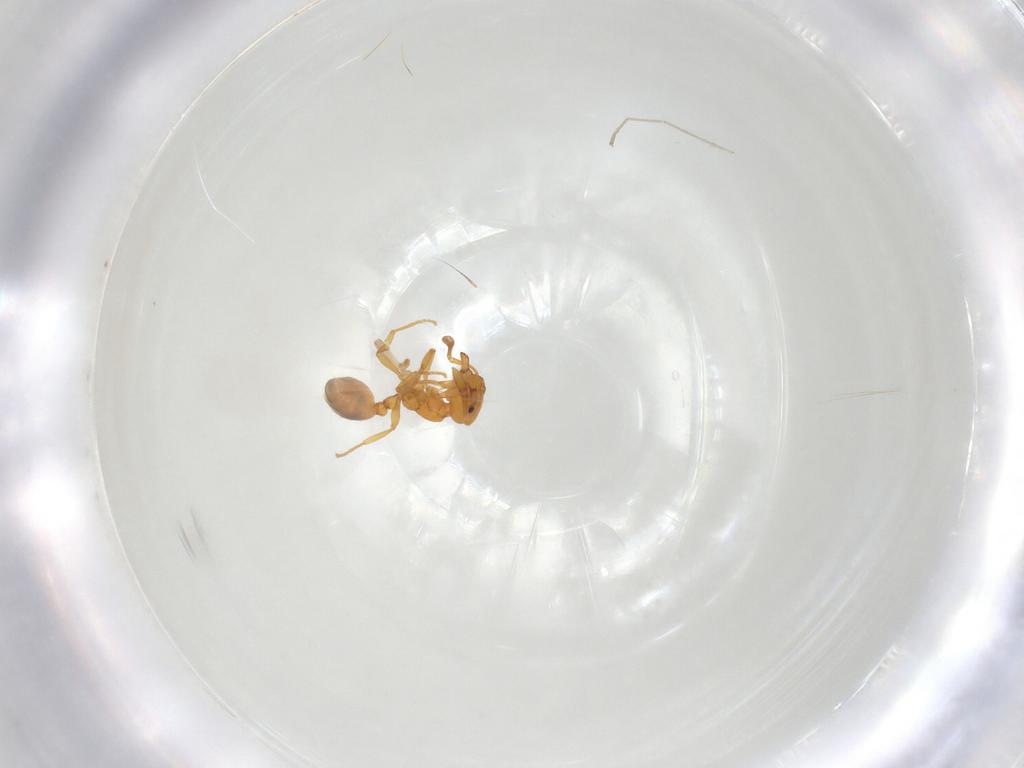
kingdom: Animalia
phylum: Arthropoda
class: Insecta
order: Hymenoptera
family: Formicidae
